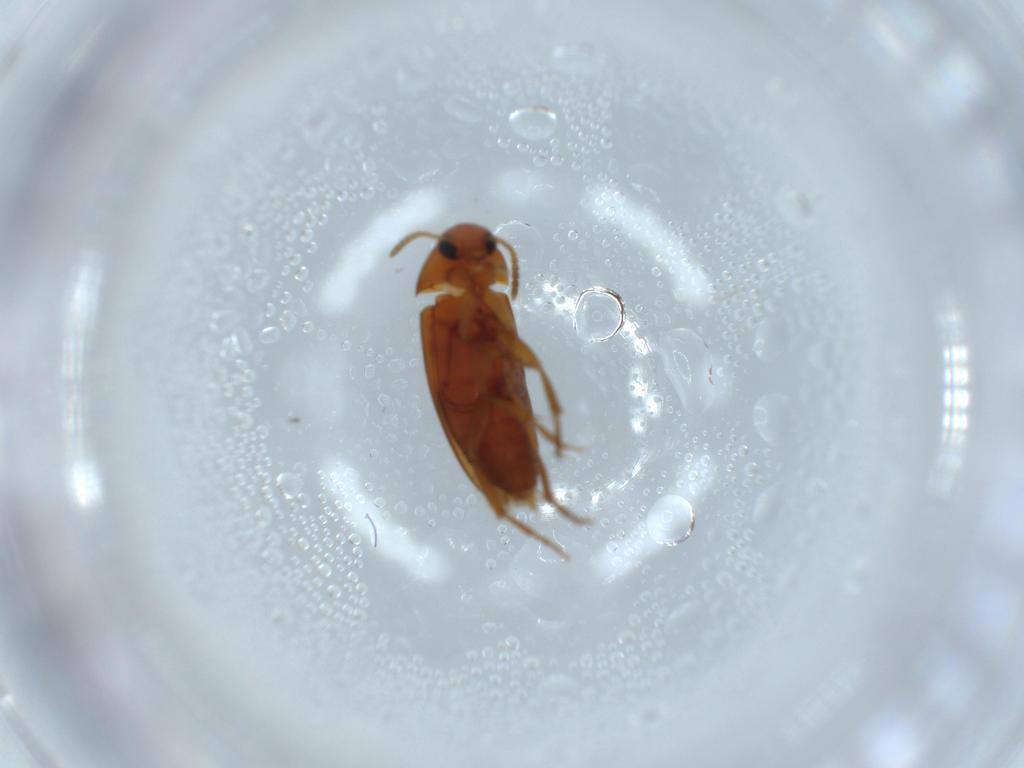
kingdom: Animalia
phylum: Arthropoda
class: Insecta
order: Coleoptera
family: Scraptiidae
